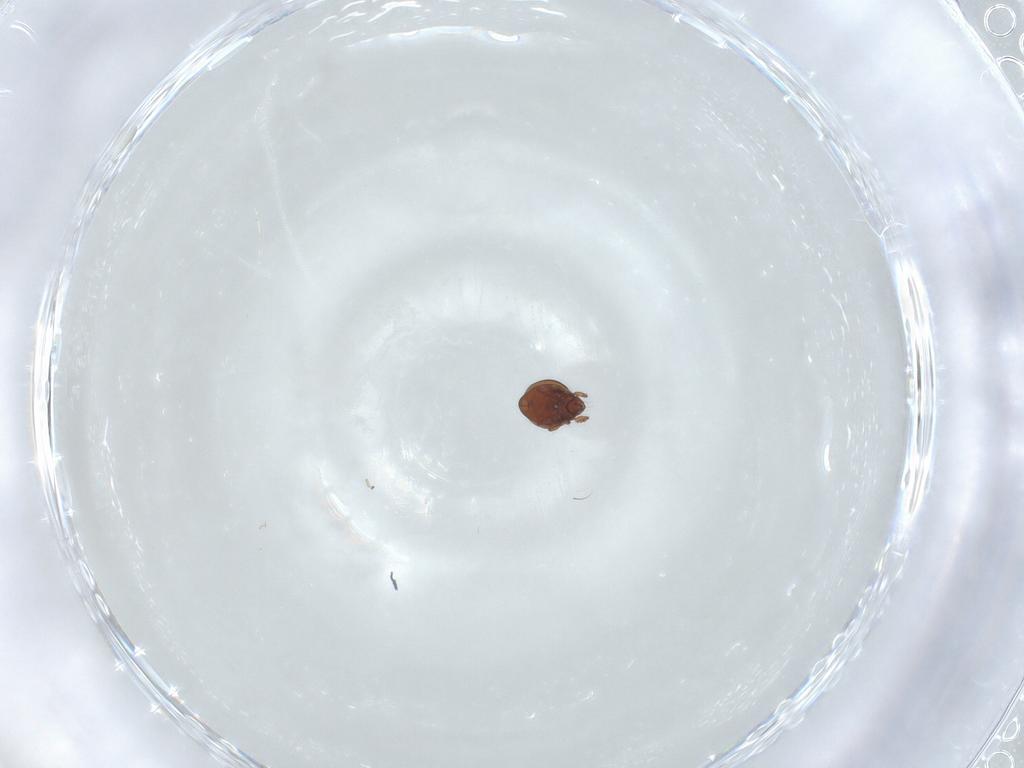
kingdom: Animalia
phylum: Arthropoda
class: Arachnida
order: Sarcoptiformes
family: Oribatulidae
